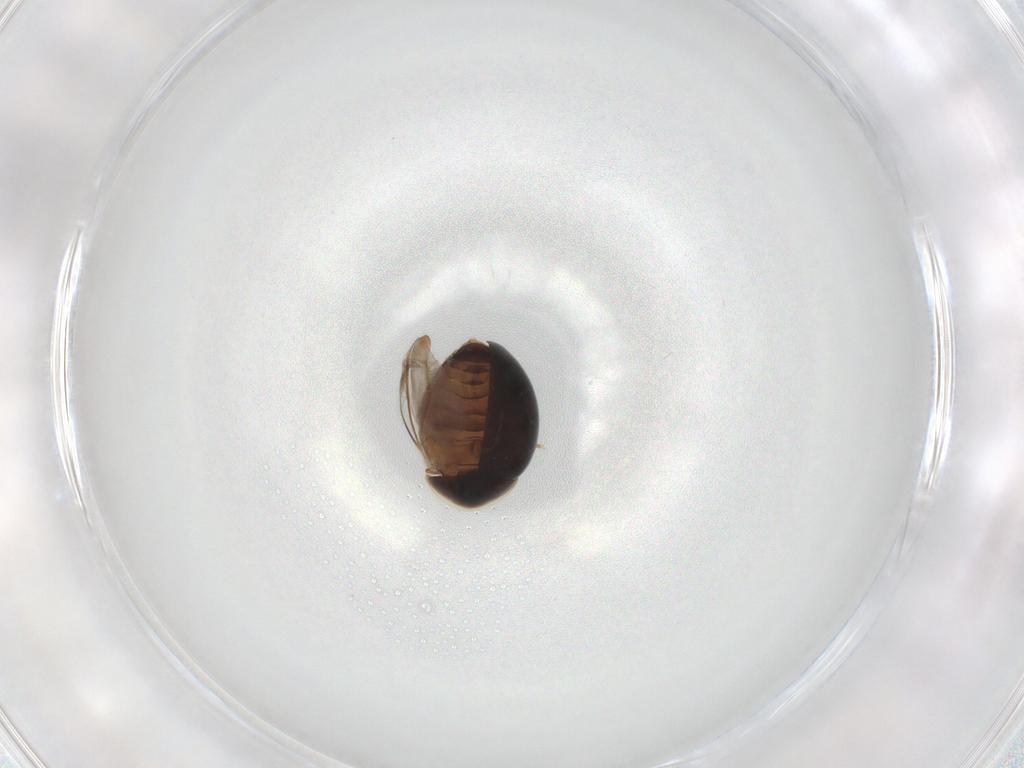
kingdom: Animalia
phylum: Arthropoda
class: Insecta
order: Coleoptera
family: Corylophidae
